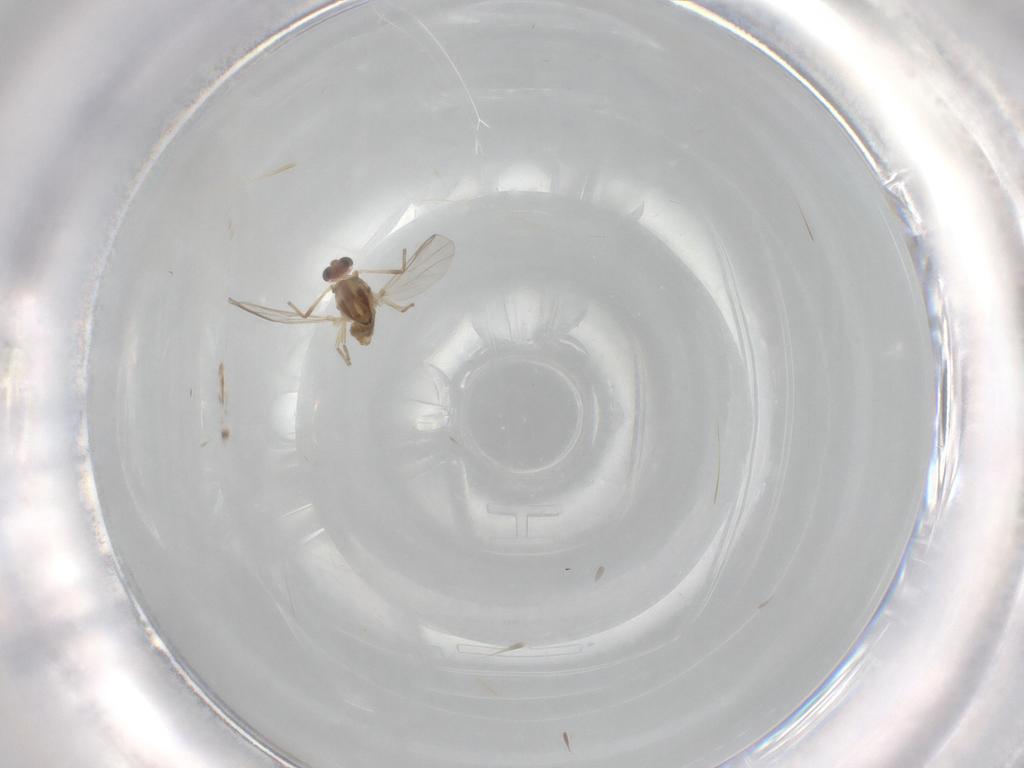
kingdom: Animalia
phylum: Arthropoda
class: Insecta
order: Diptera
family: Chironomidae
